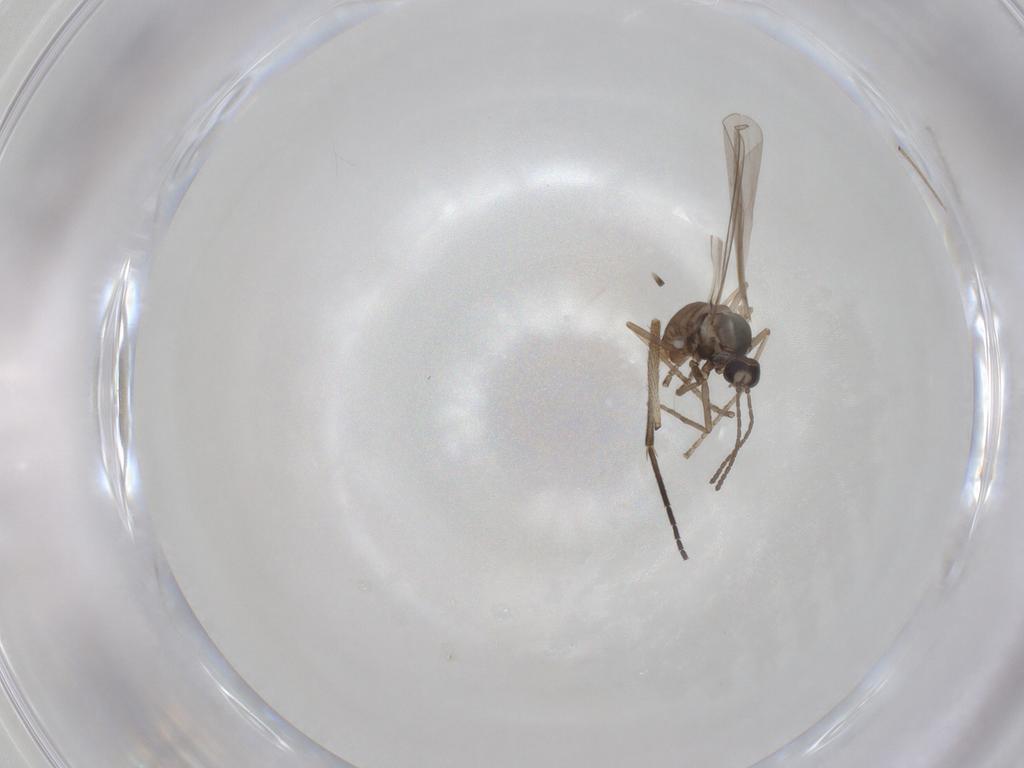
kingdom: Animalia
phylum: Arthropoda
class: Insecta
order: Diptera
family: Chironomidae
